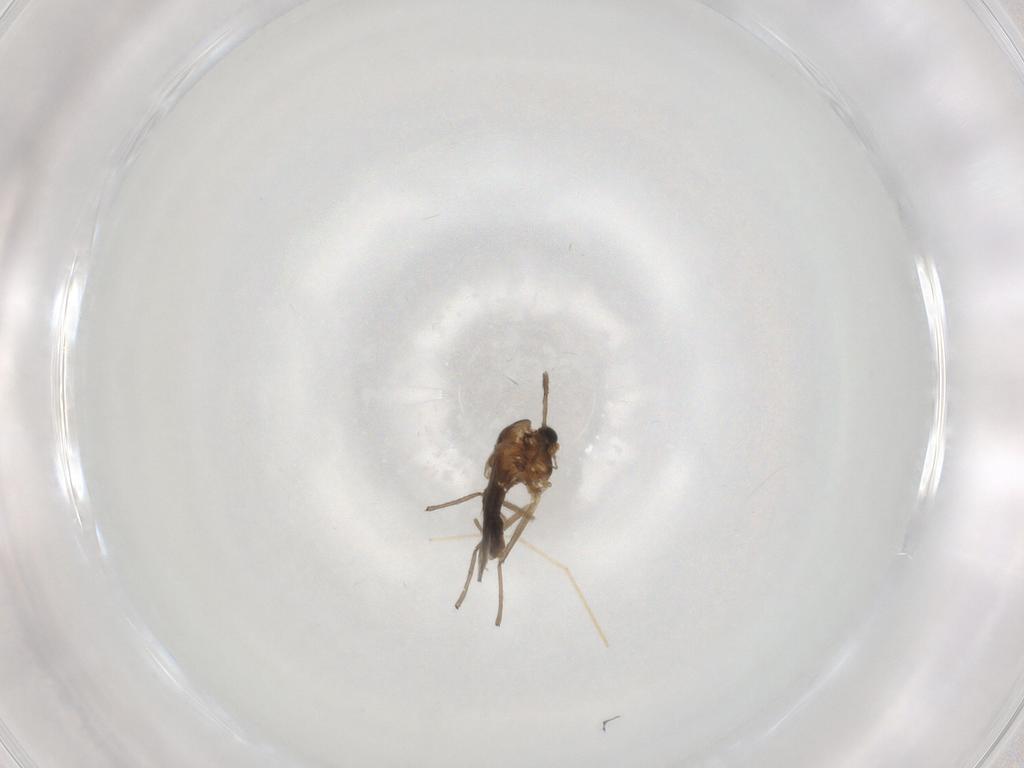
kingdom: Animalia
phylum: Arthropoda
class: Insecta
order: Diptera
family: Chironomidae
